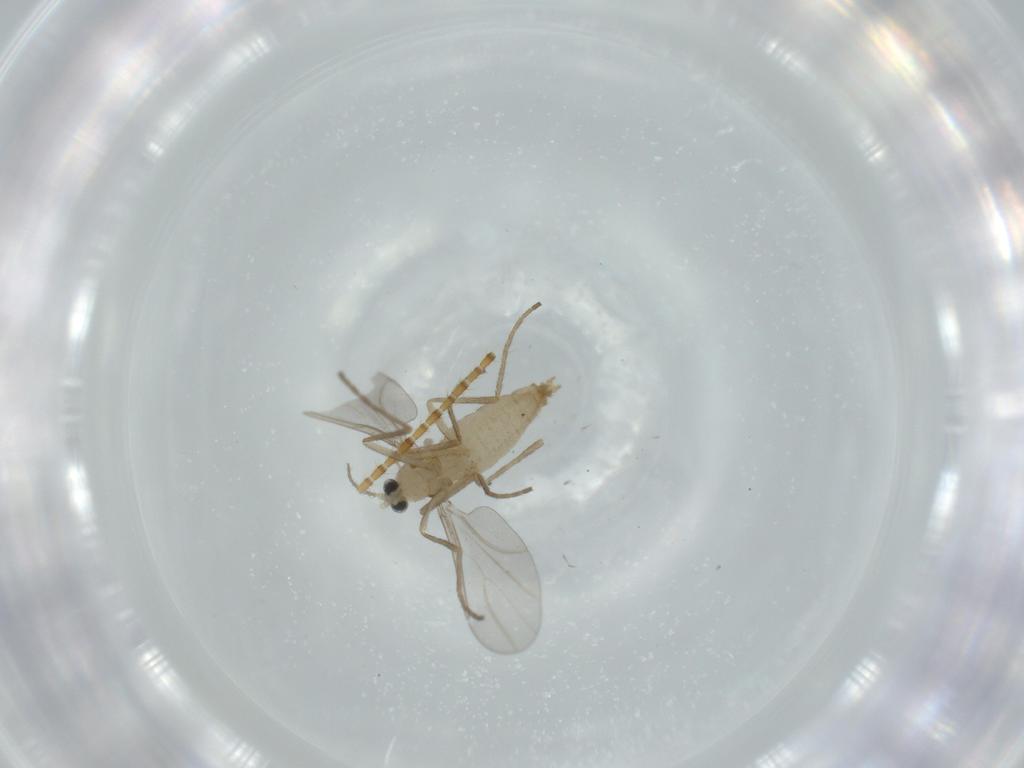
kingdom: Animalia
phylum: Arthropoda
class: Insecta
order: Diptera
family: Cecidomyiidae
